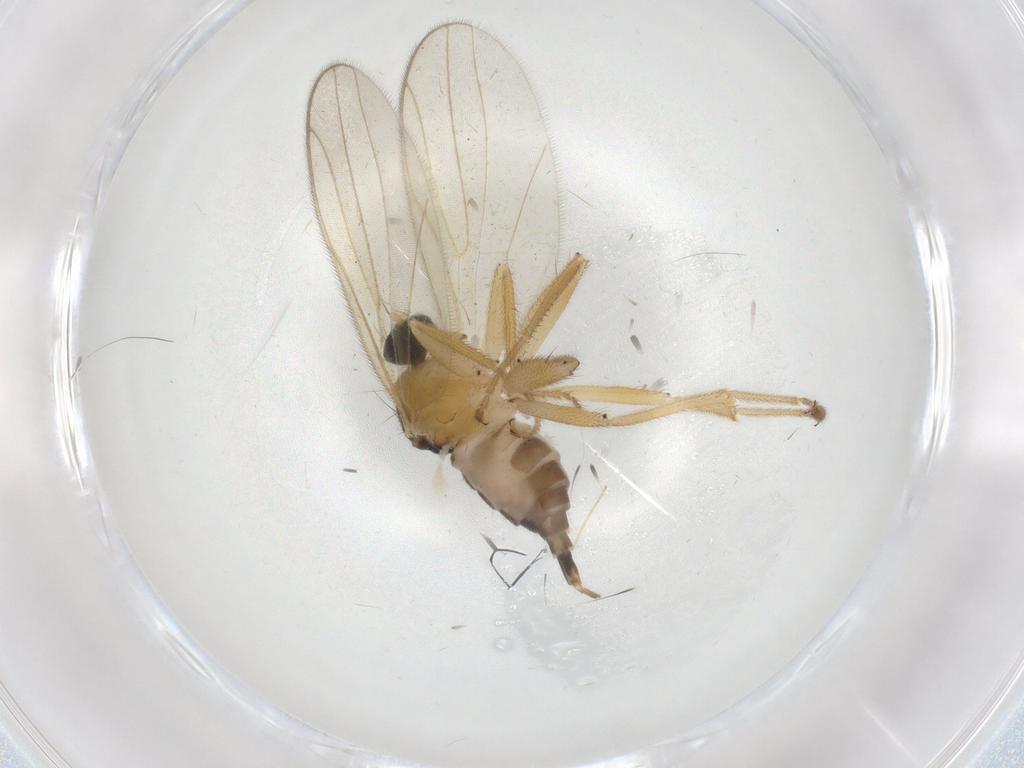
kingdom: Animalia
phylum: Arthropoda
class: Insecta
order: Diptera
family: Hybotidae
